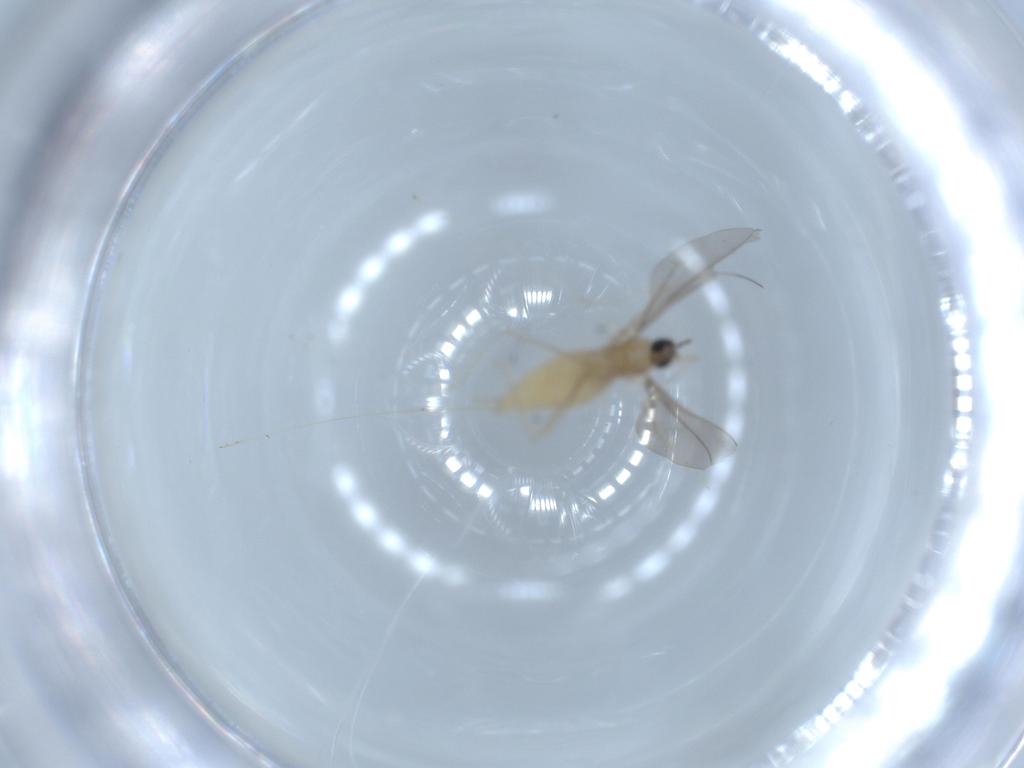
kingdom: Animalia
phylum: Arthropoda
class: Insecta
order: Diptera
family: Cecidomyiidae
